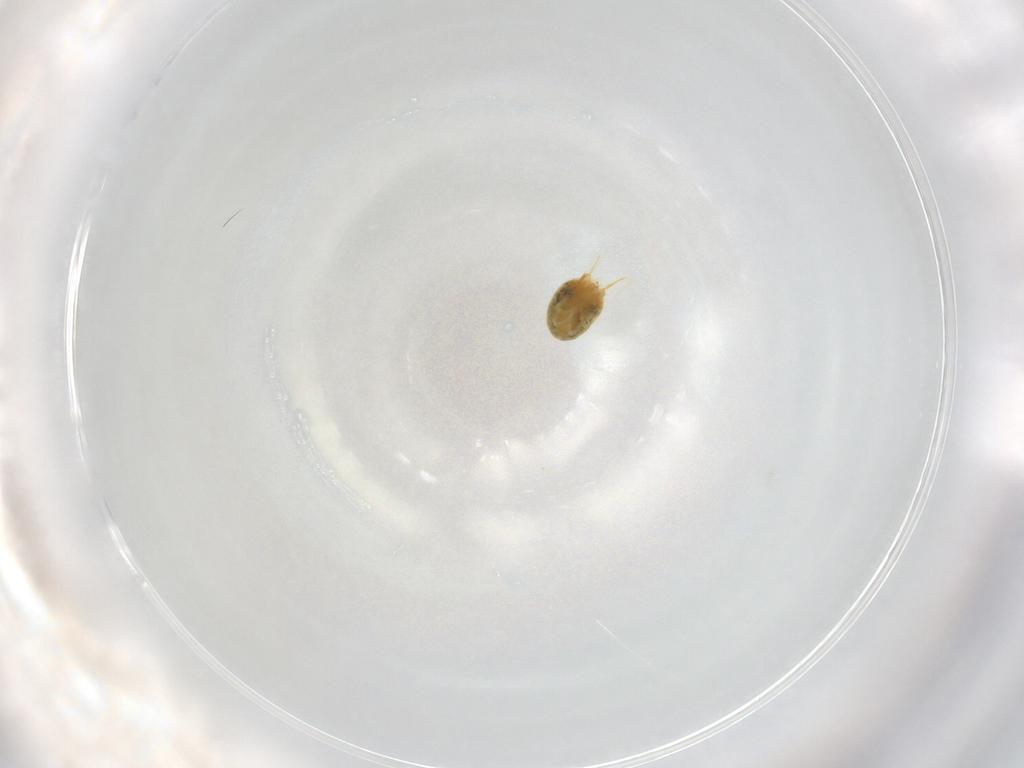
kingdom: Animalia
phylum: Arthropoda
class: Arachnida
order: Trombidiformes
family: Tetranychidae
